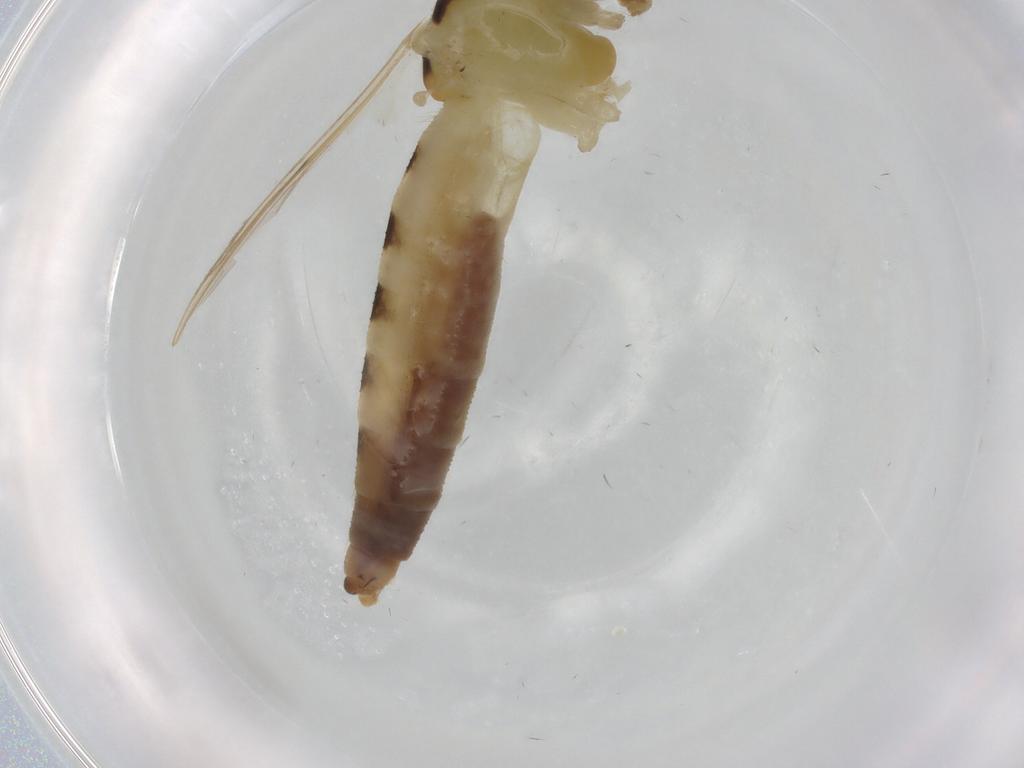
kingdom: Animalia
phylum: Arthropoda
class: Insecta
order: Diptera
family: Chironomidae
